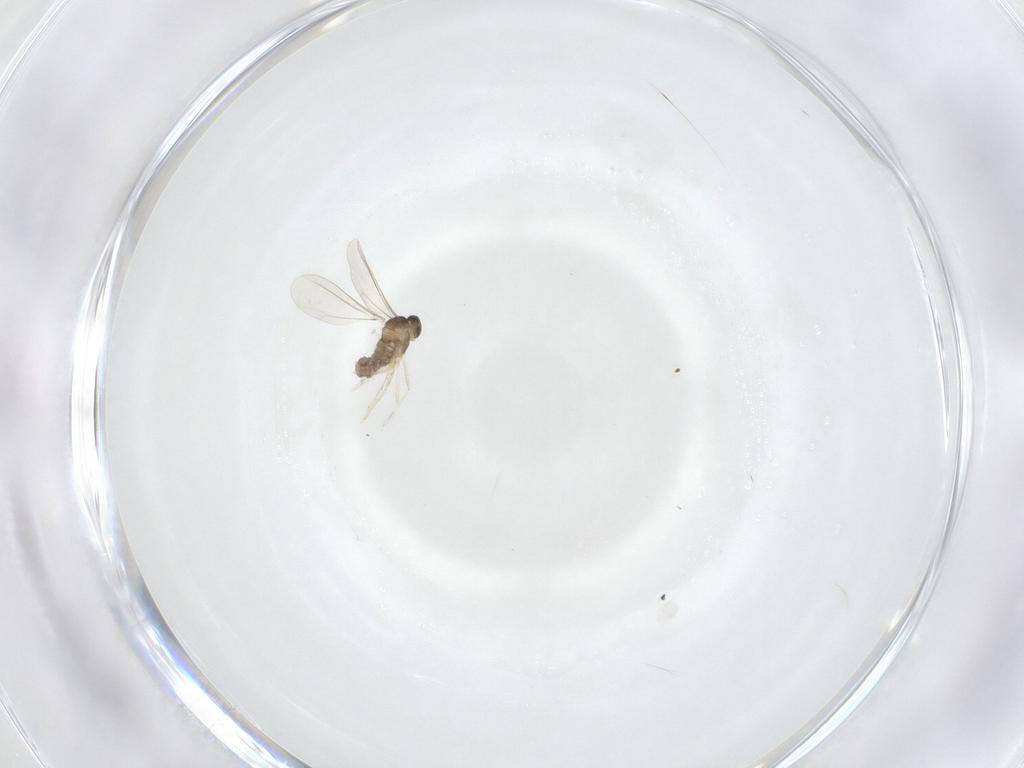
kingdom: Animalia
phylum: Arthropoda
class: Insecta
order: Diptera
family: Cecidomyiidae
